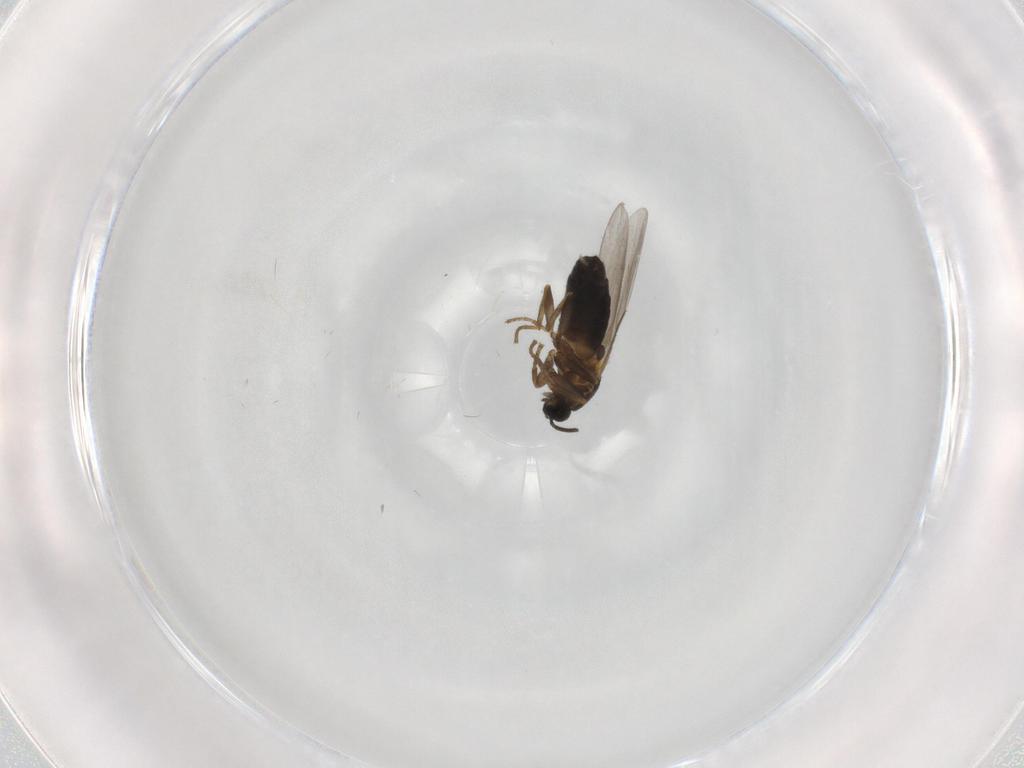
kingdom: Animalia
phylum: Arthropoda
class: Insecta
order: Diptera
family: Scatopsidae
